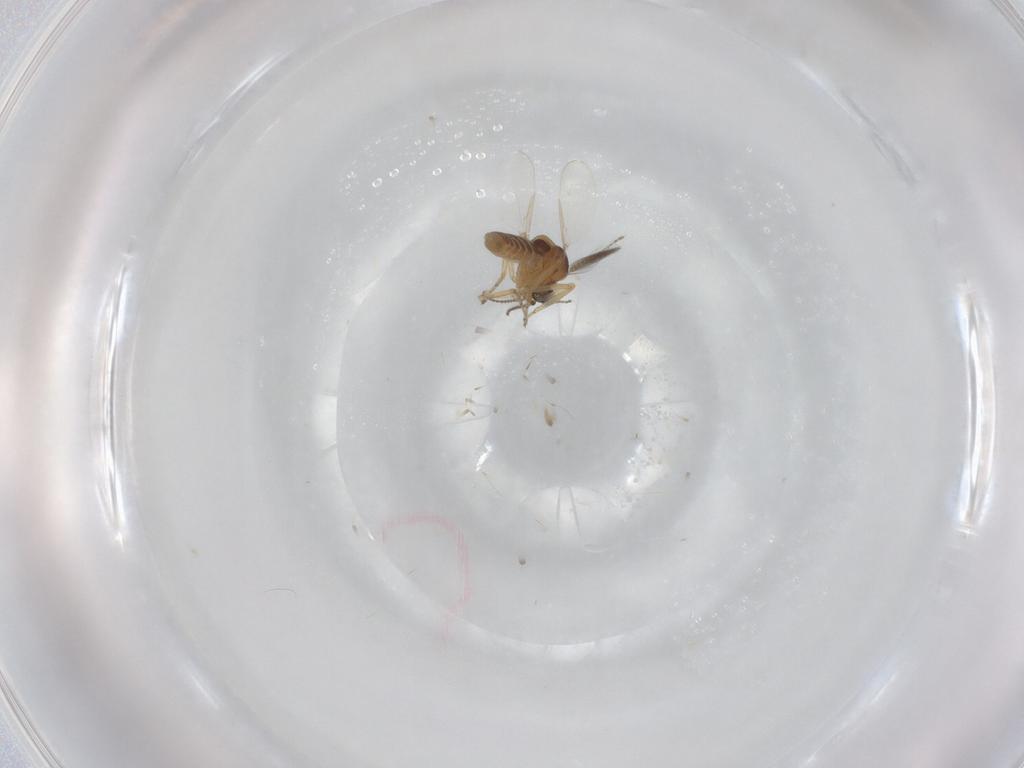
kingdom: Animalia
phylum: Arthropoda
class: Insecta
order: Diptera
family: Ceratopogonidae
